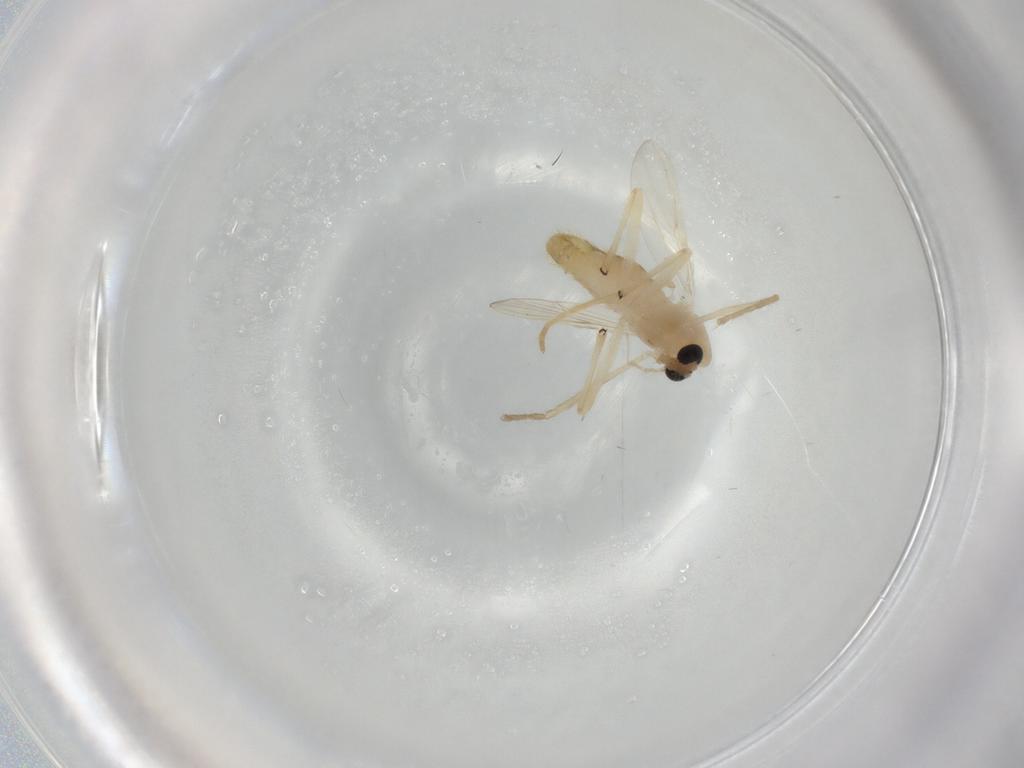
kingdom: Animalia
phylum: Arthropoda
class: Insecta
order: Diptera
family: Chironomidae
